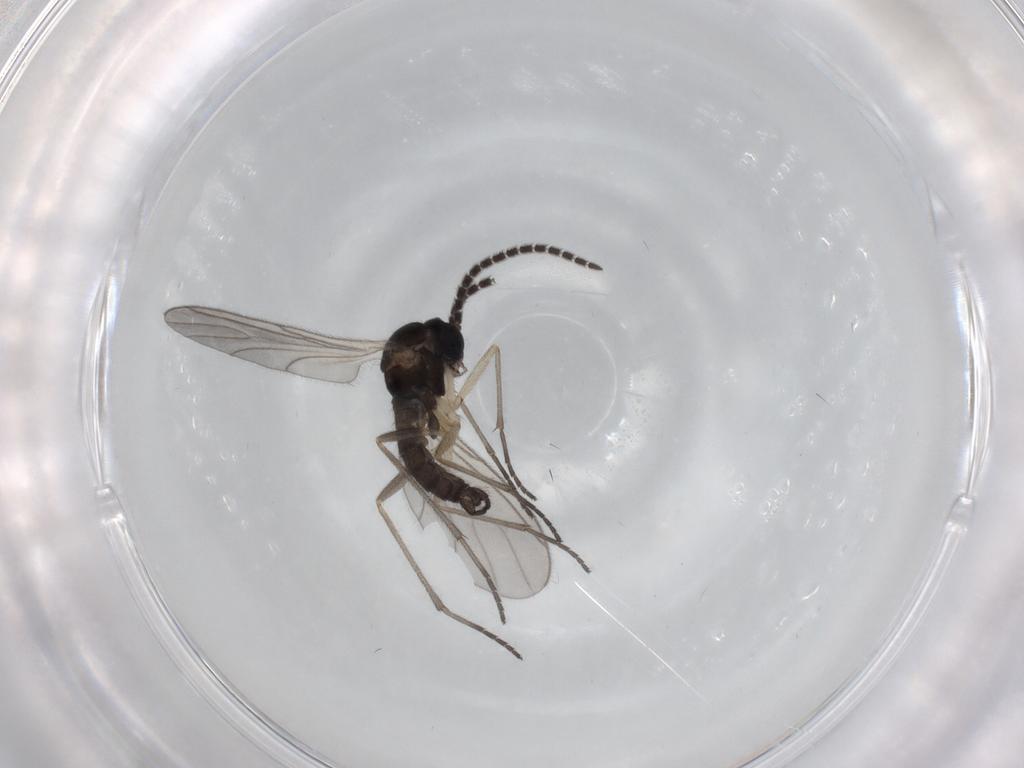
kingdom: Animalia
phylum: Arthropoda
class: Insecta
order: Diptera
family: Sciaridae
